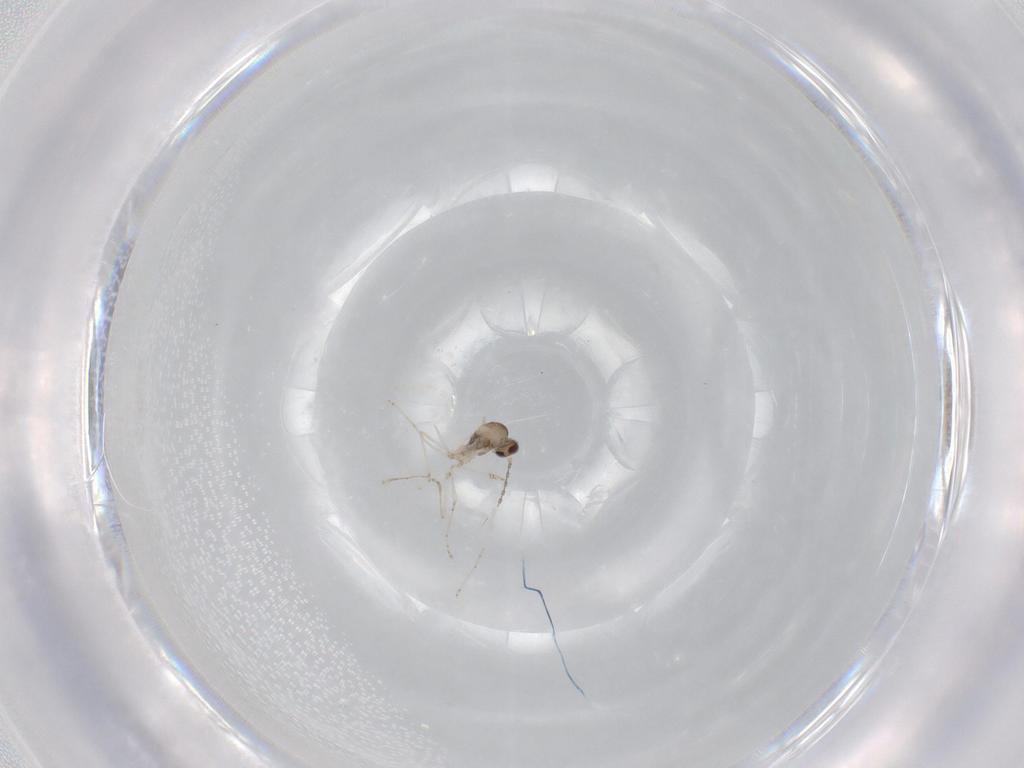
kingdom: Animalia
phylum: Arthropoda
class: Insecta
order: Diptera
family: Cecidomyiidae
